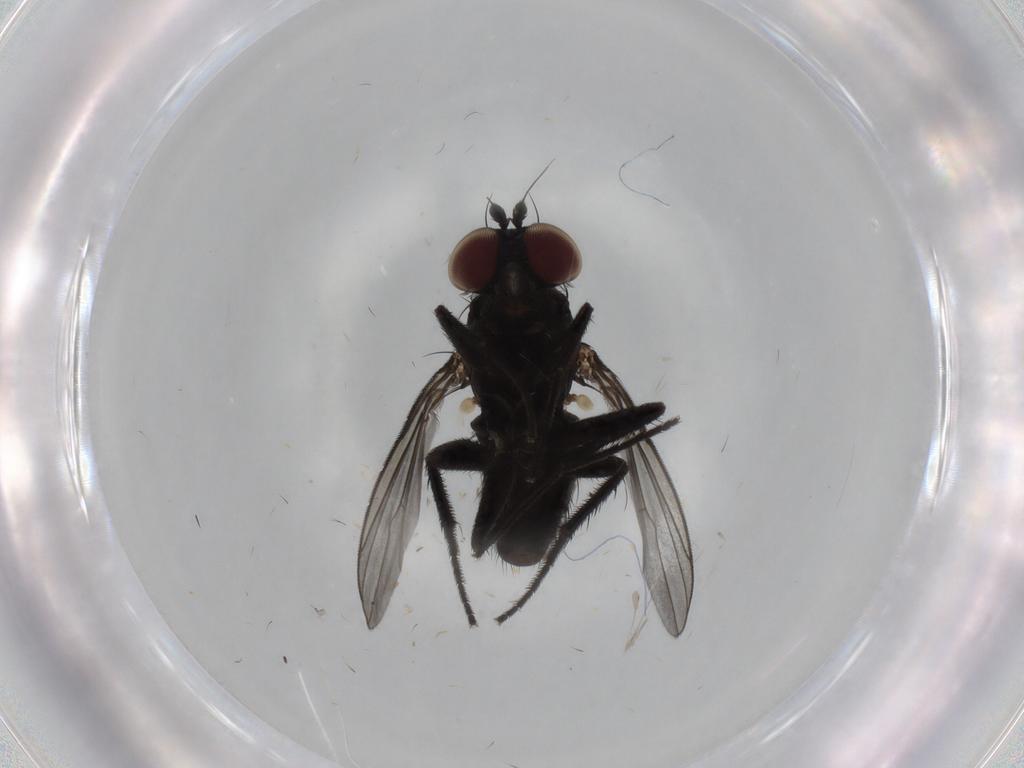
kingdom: Animalia
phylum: Arthropoda
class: Insecta
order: Diptera
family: Dolichopodidae
